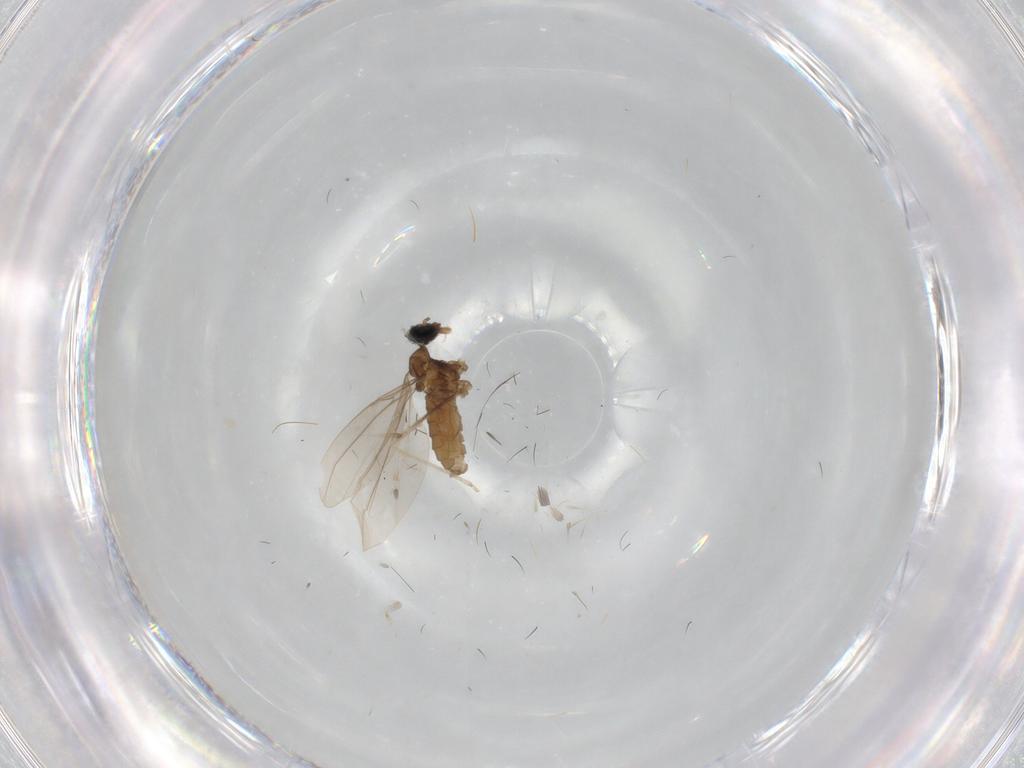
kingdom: Animalia
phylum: Arthropoda
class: Insecta
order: Diptera
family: Cecidomyiidae
